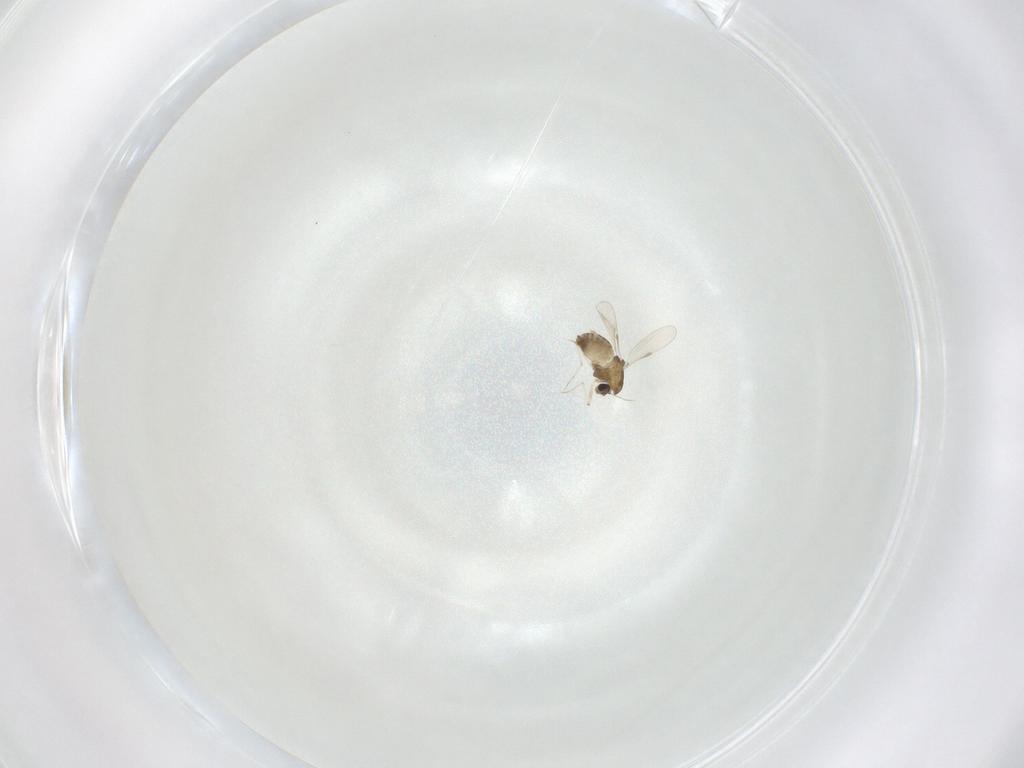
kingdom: Animalia
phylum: Arthropoda
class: Insecta
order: Diptera
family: Chironomidae
